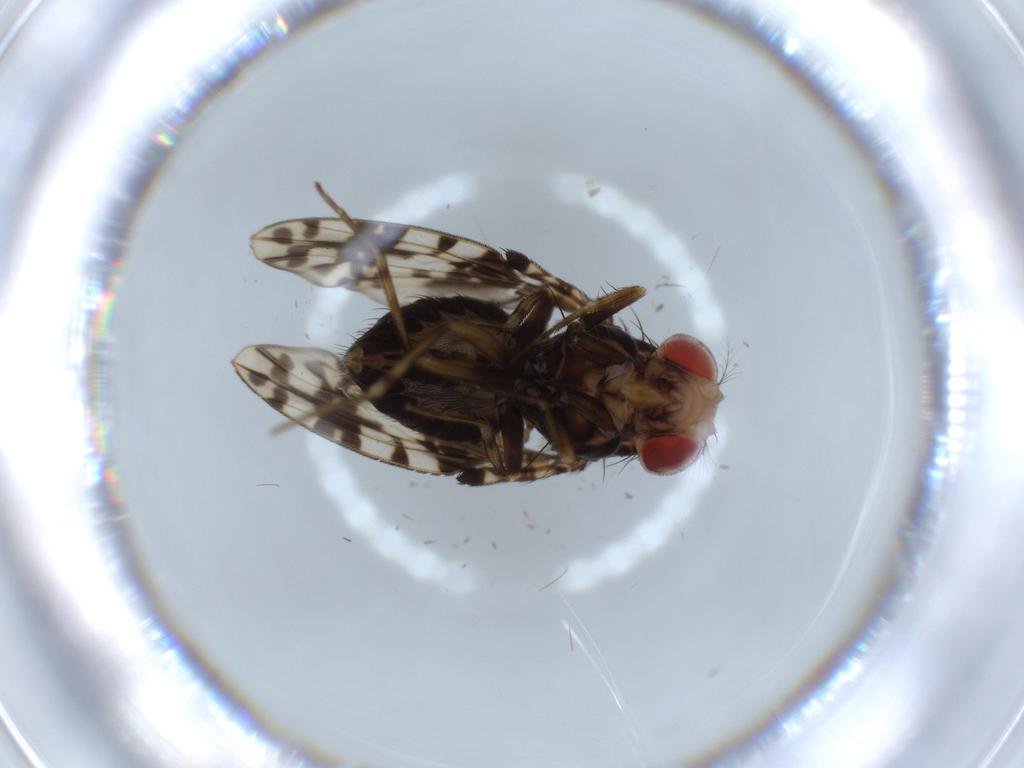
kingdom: Animalia
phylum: Arthropoda
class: Insecta
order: Diptera
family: Drosophilidae
